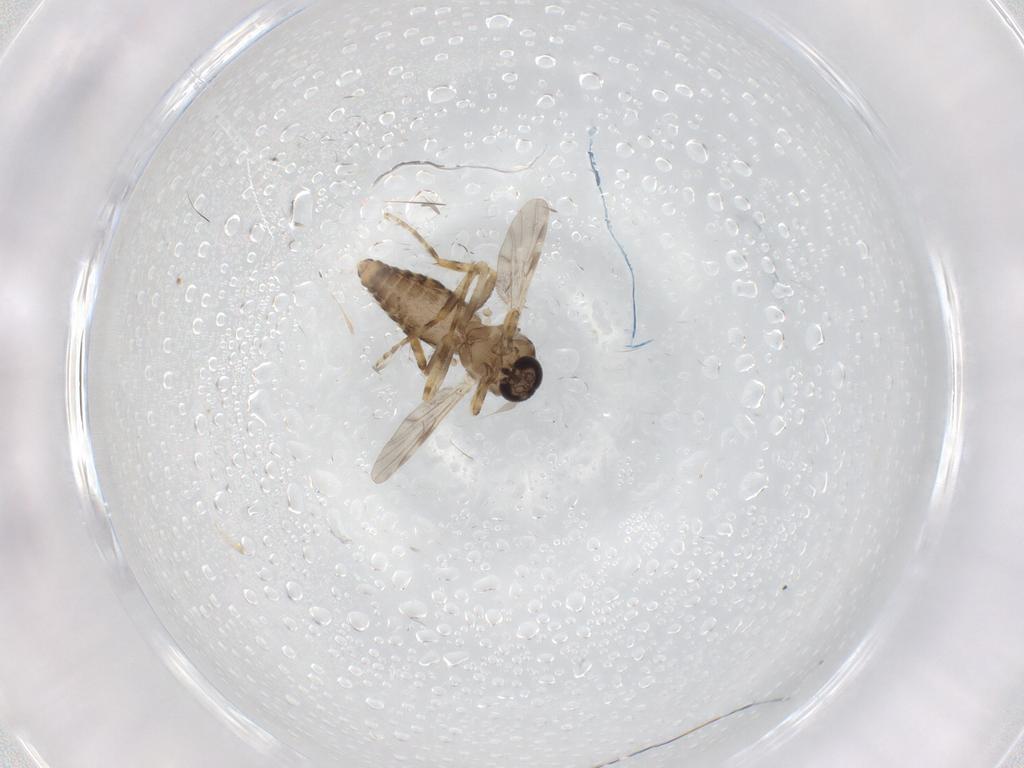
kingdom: Animalia
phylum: Arthropoda
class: Insecta
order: Diptera
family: Ceratopogonidae
